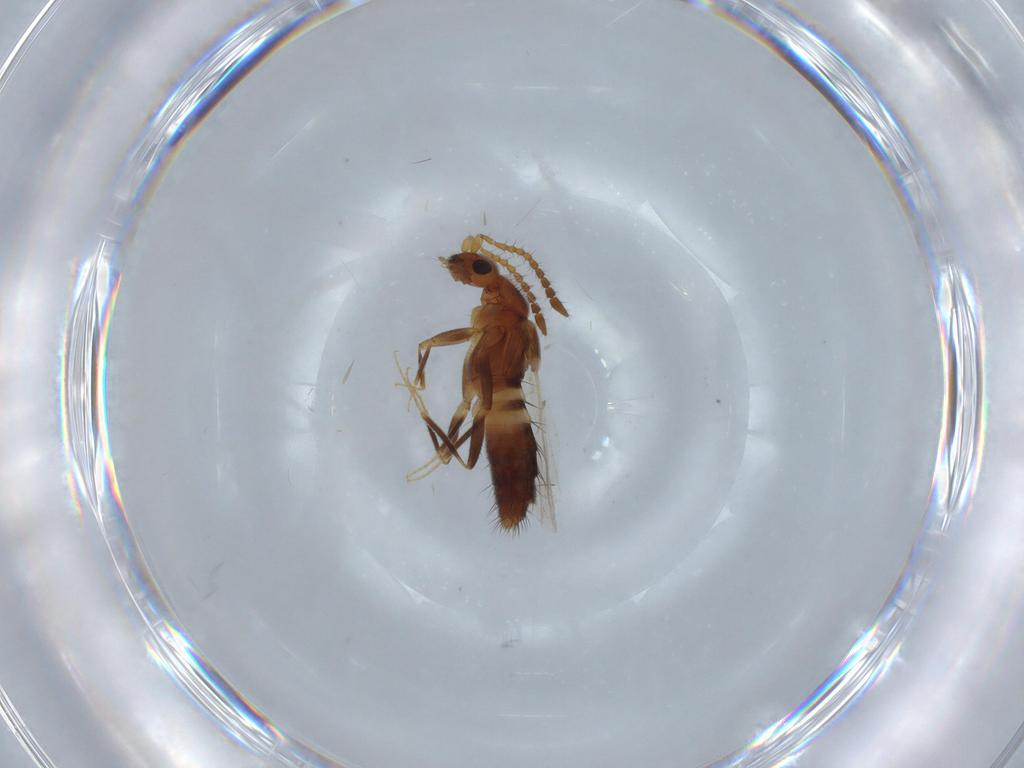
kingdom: Animalia
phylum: Arthropoda
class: Insecta
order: Coleoptera
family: Staphylinidae
